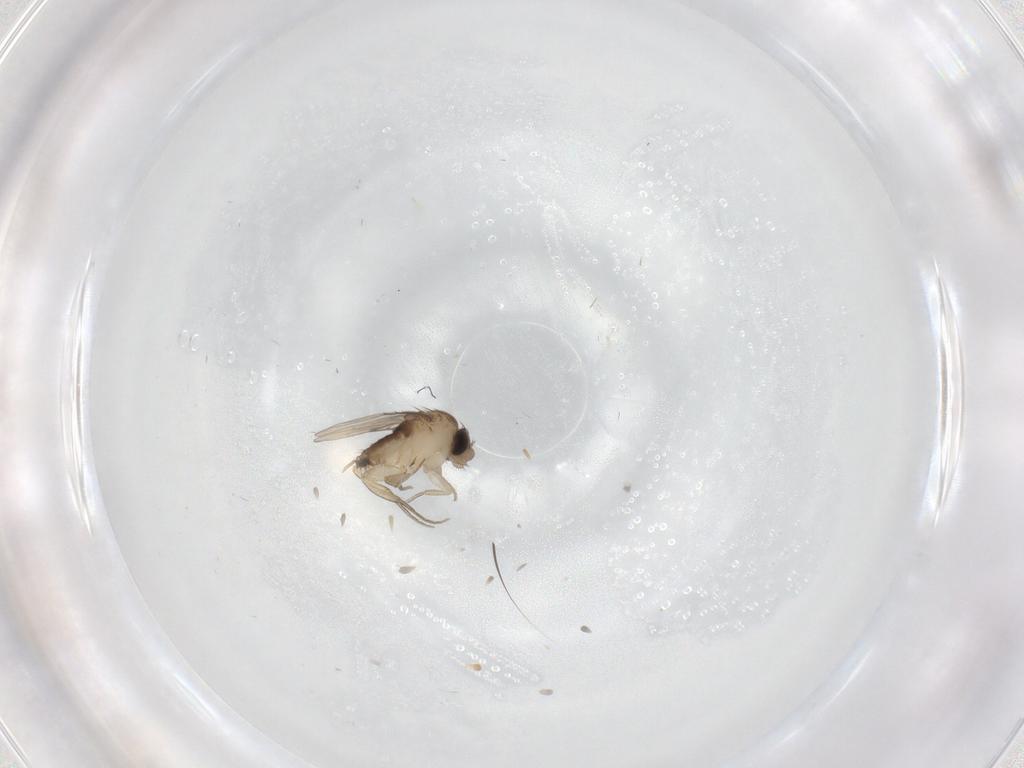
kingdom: Animalia
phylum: Arthropoda
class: Insecta
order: Diptera
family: Phoridae
